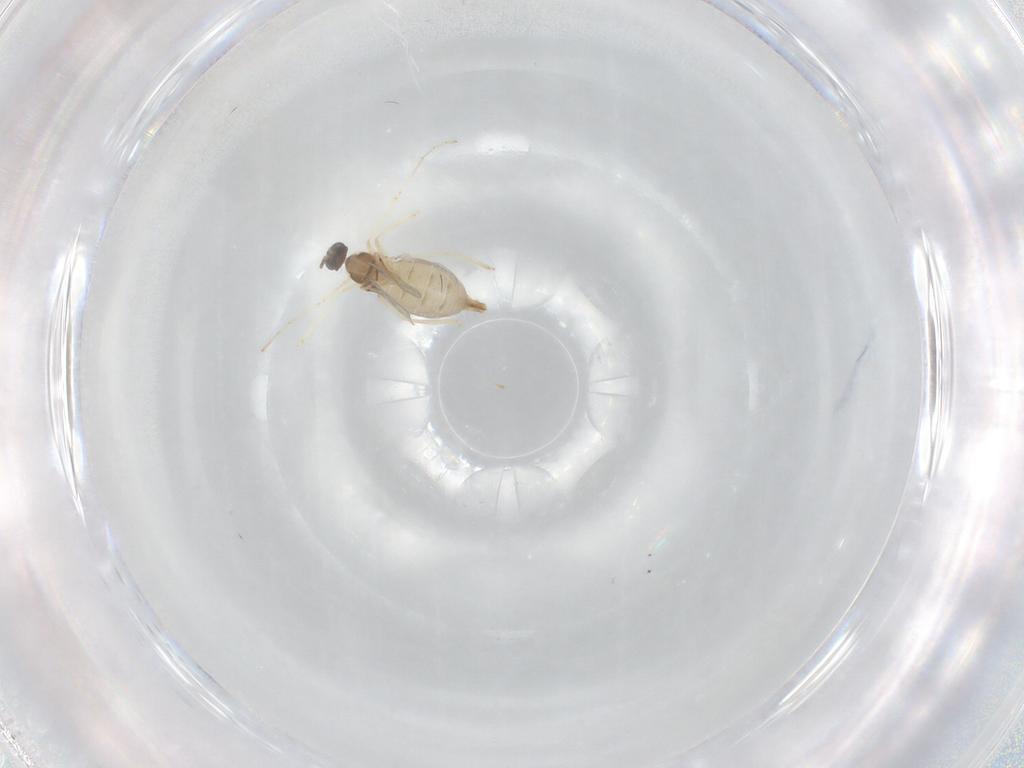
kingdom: Animalia
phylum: Arthropoda
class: Insecta
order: Diptera
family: Cecidomyiidae
